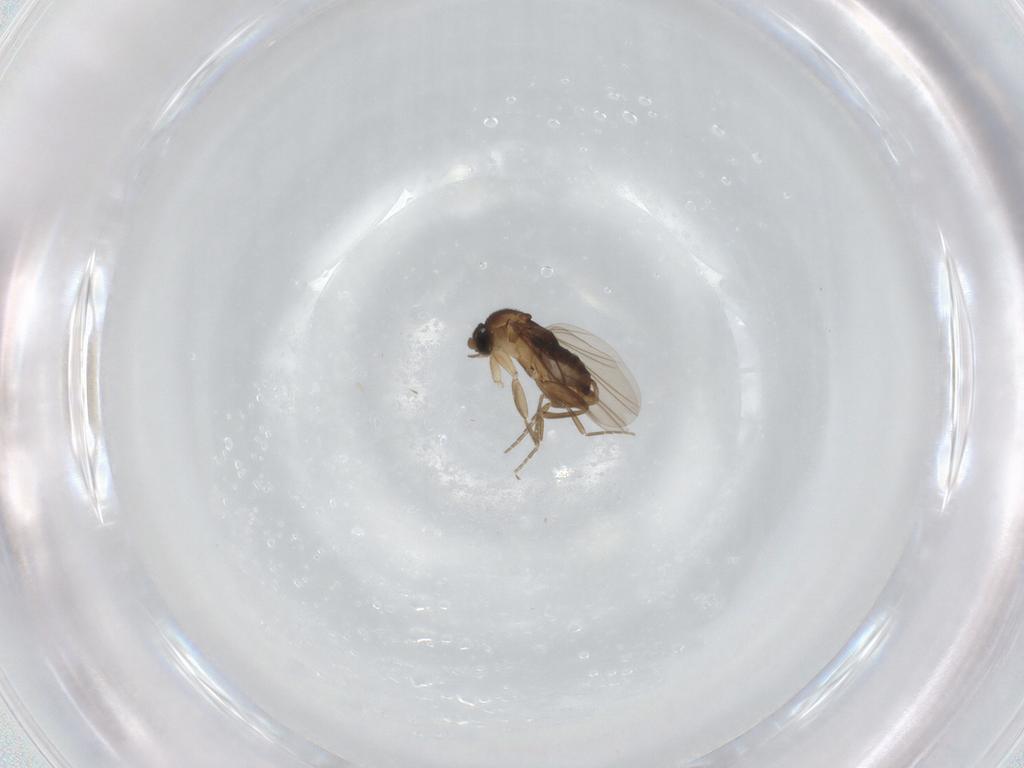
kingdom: Animalia
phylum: Arthropoda
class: Insecta
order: Diptera
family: Phoridae
